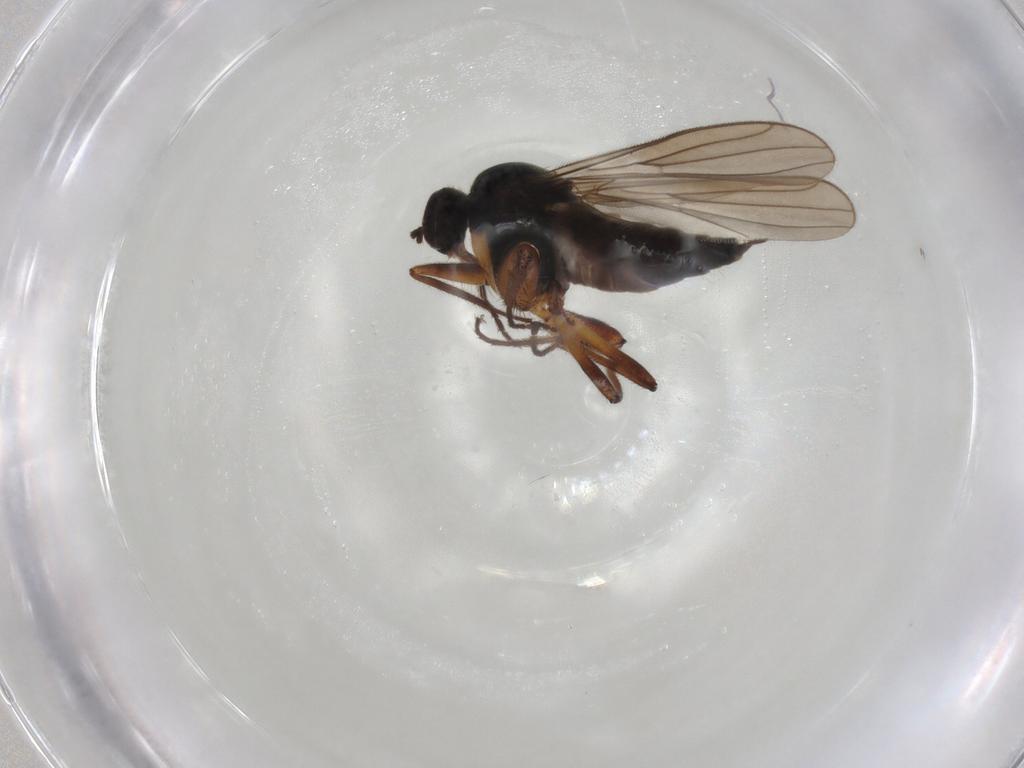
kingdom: Animalia
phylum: Arthropoda
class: Insecta
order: Diptera
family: Hybotidae
